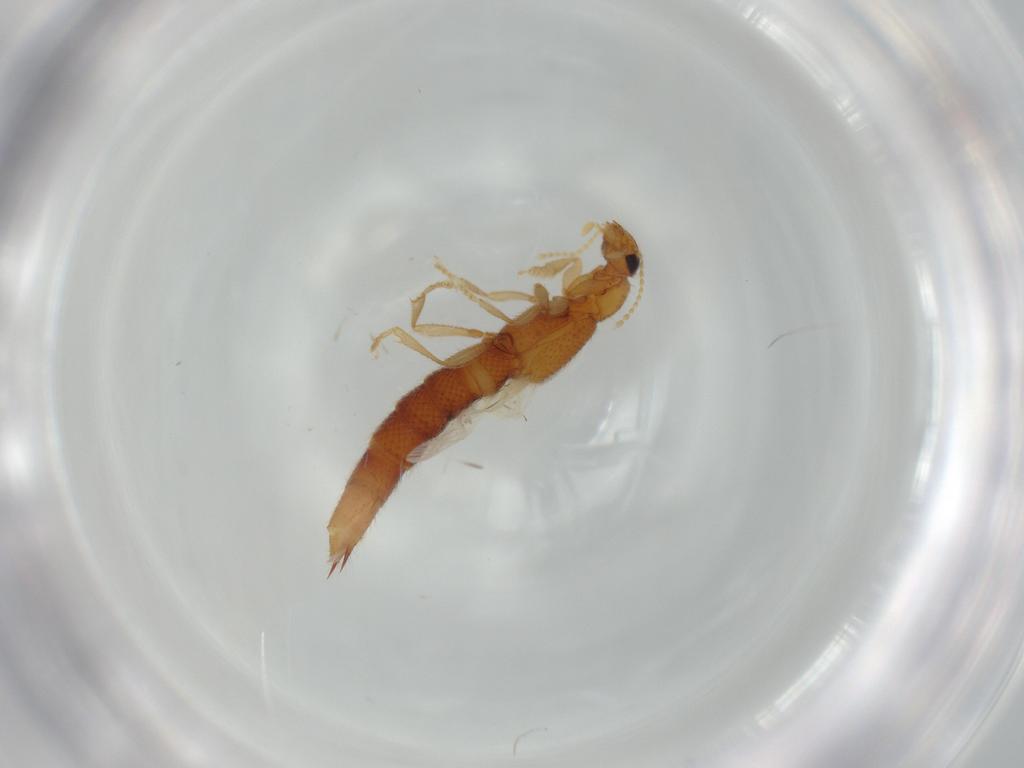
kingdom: Animalia
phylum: Arthropoda
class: Insecta
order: Coleoptera
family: Staphylinidae
